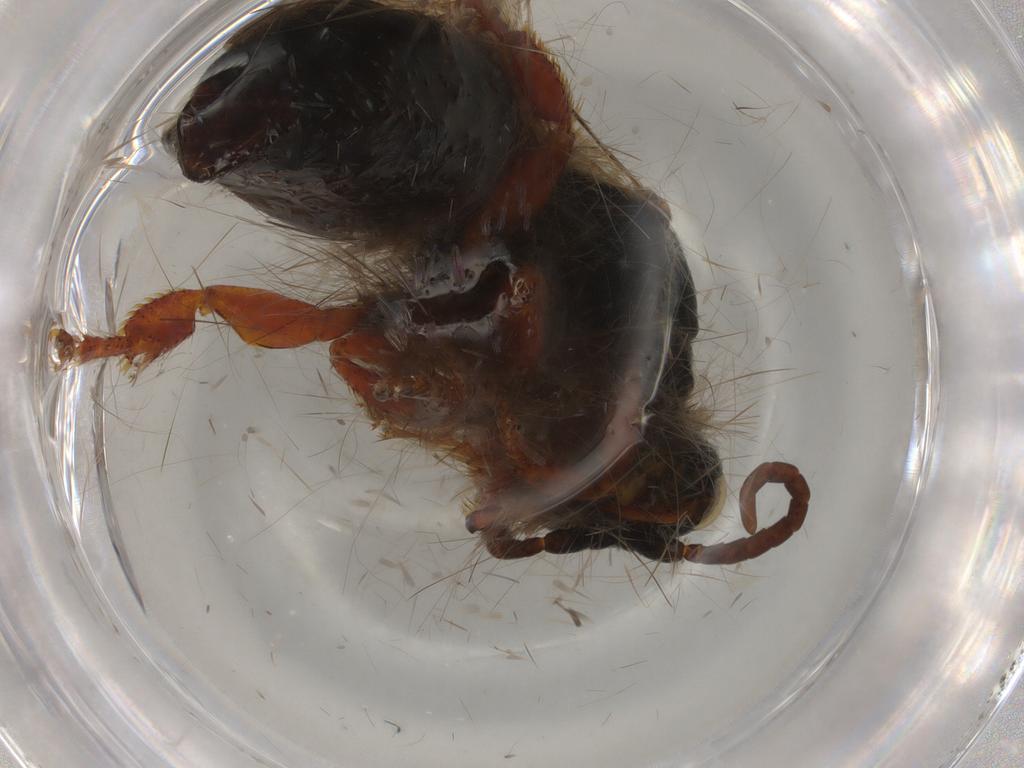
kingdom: Animalia
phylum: Arthropoda
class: Insecta
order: Hymenoptera
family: Tiphiidae
